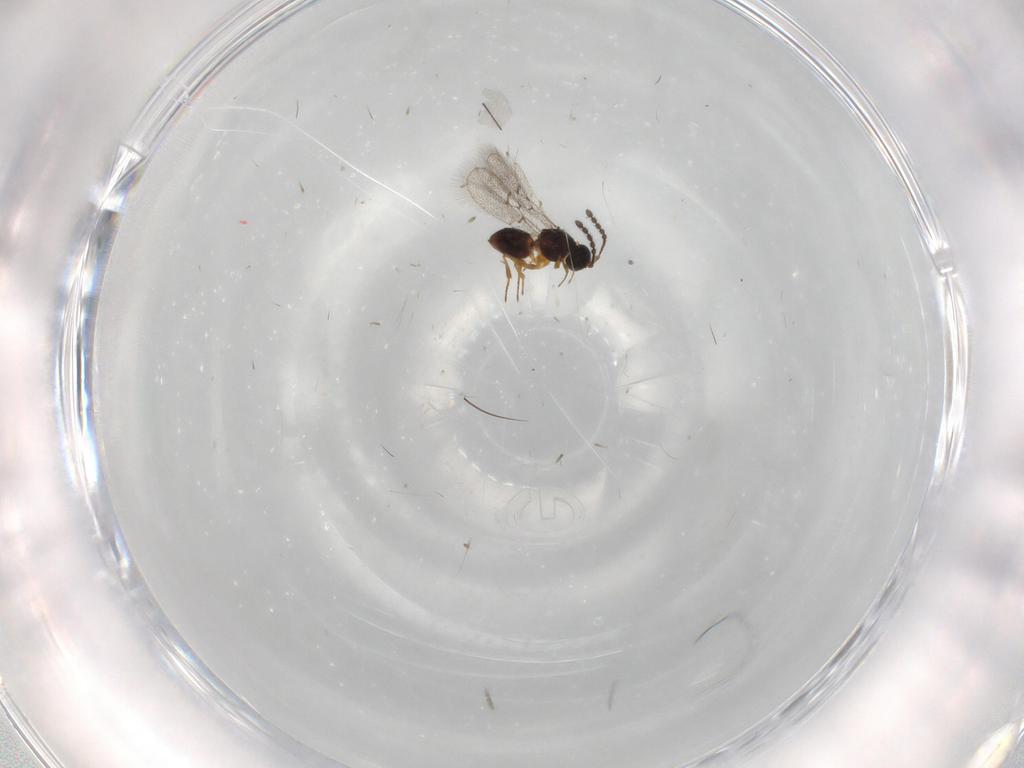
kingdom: Animalia
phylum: Arthropoda
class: Insecta
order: Hymenoptera
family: Figitidae
